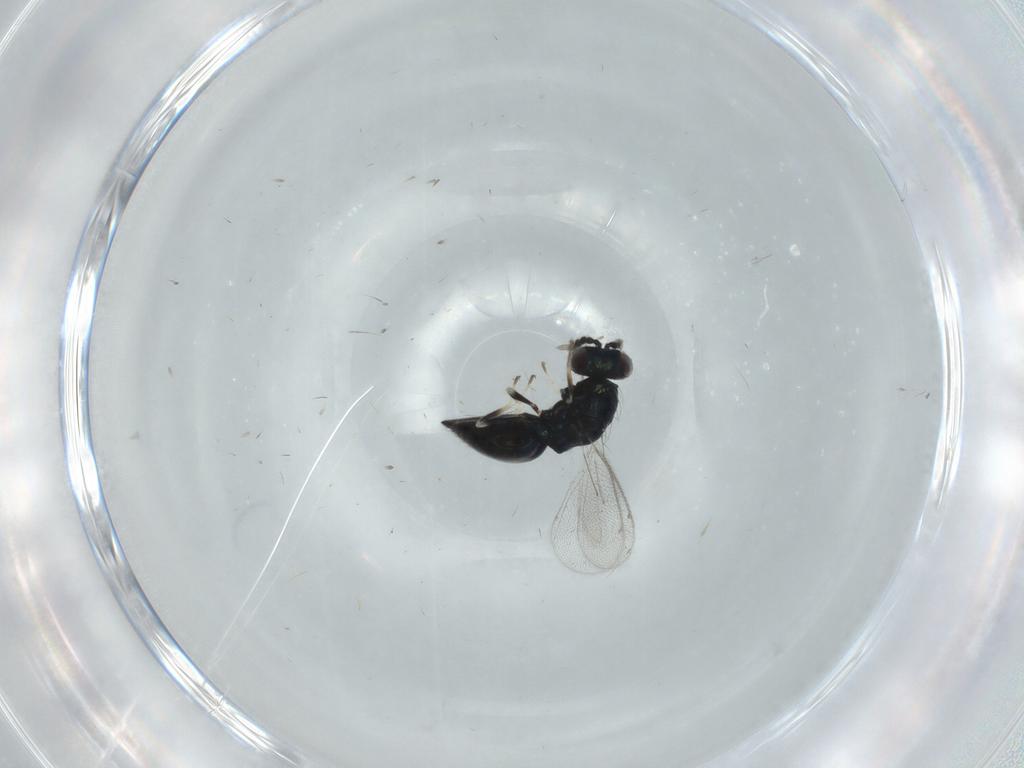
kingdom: Animalia
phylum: Arthropoda
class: Insecta
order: Hymenoptera
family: Eulophidae
